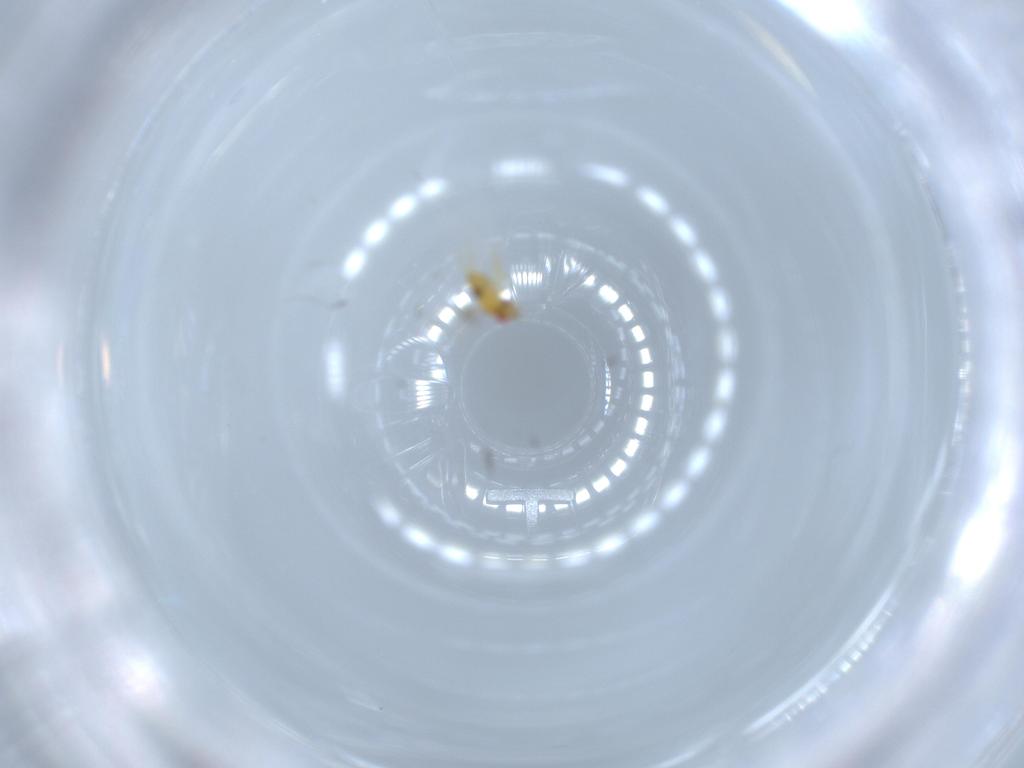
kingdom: Animalia
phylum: Arthropoda
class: Insecta
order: Hymenoptera
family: Trichogrammatidae
